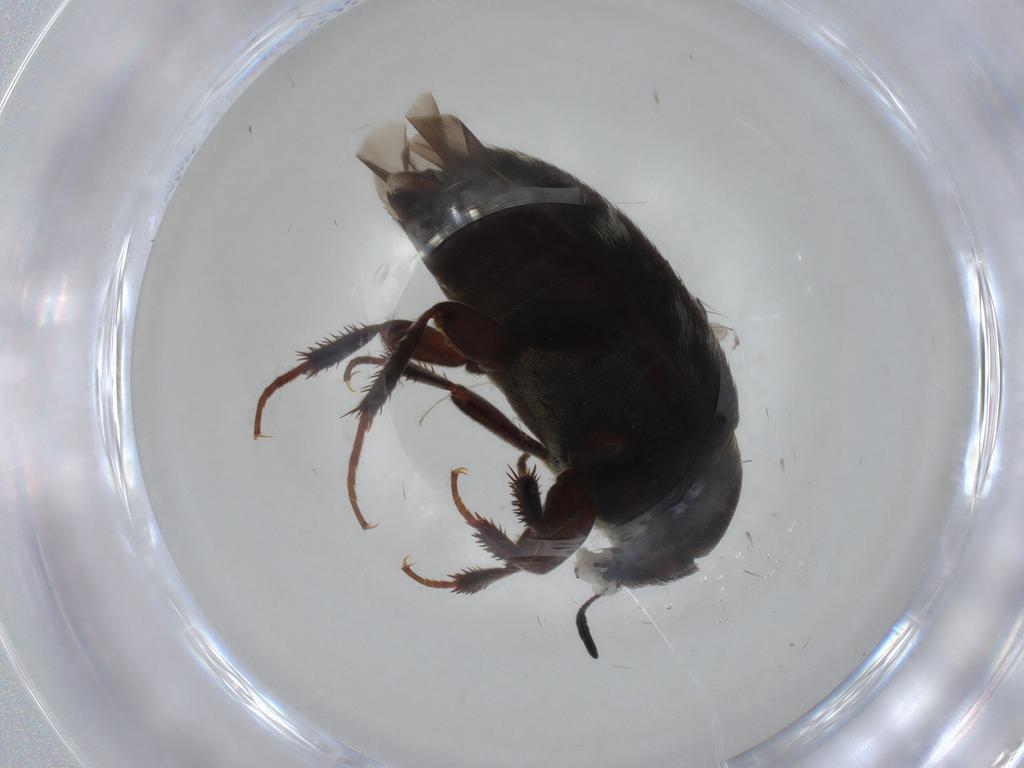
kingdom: Animalia
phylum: Arthropoda
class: Insecta
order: Coleoptera
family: Dermestidae
